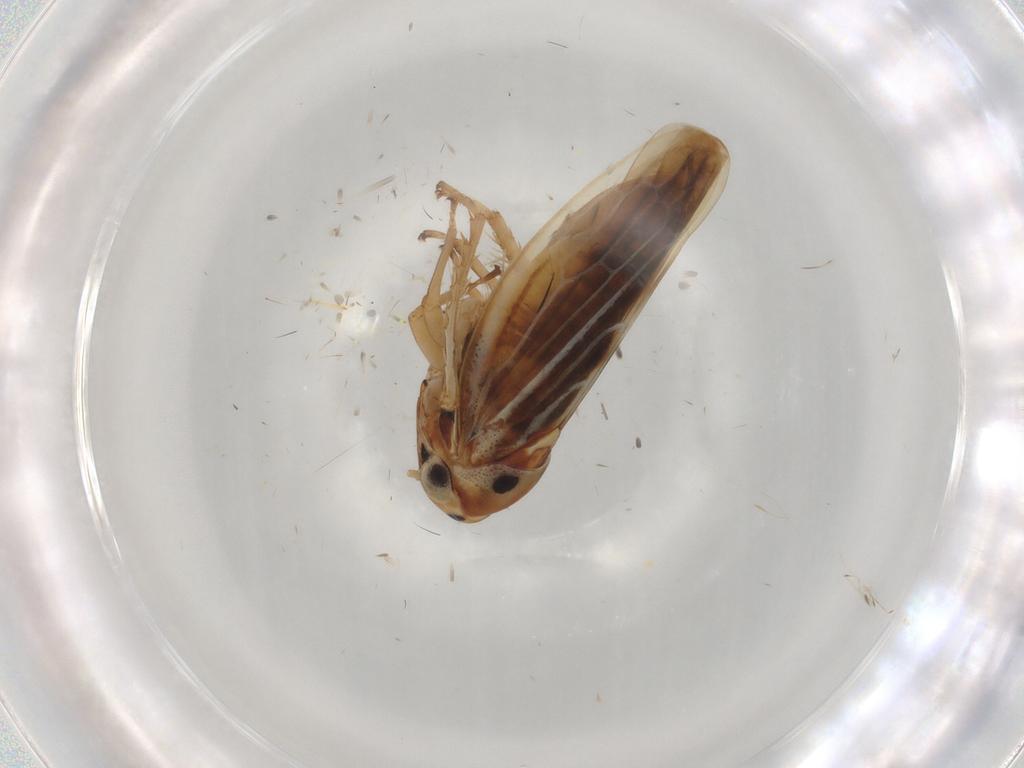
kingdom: Animalia
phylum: Arthropoda
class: Insecta
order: Hemiptera
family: Cicadellidae
